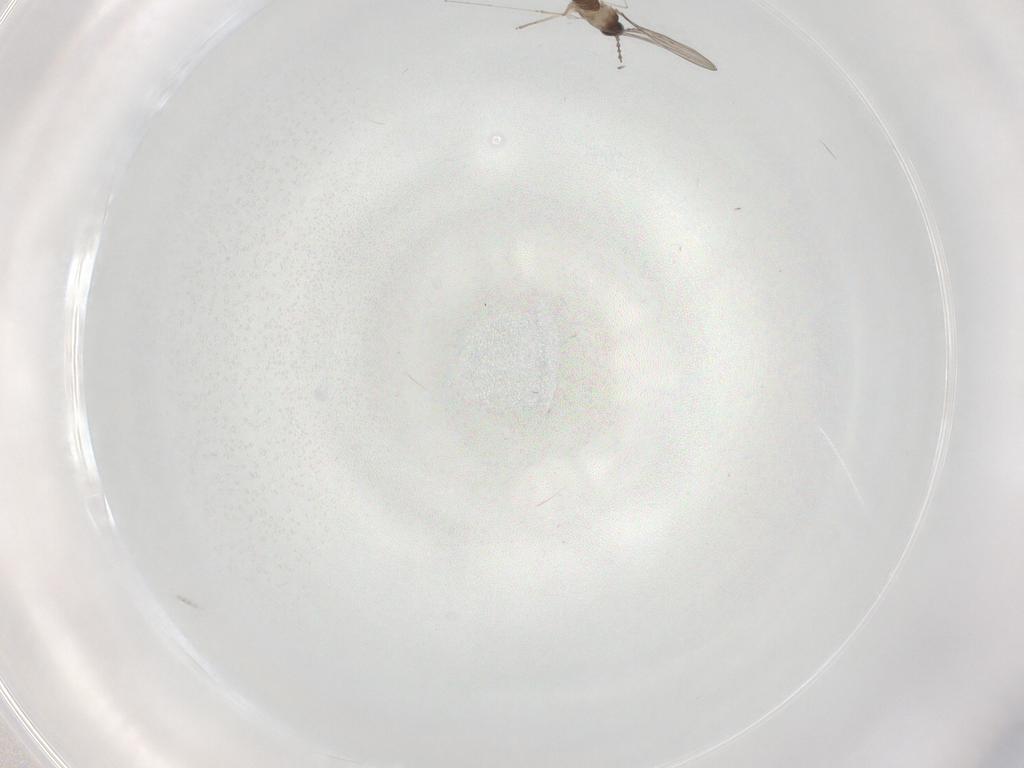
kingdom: Animalia
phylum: Arthropoda
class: Insecta
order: Diptera
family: Cecidomyiidae
